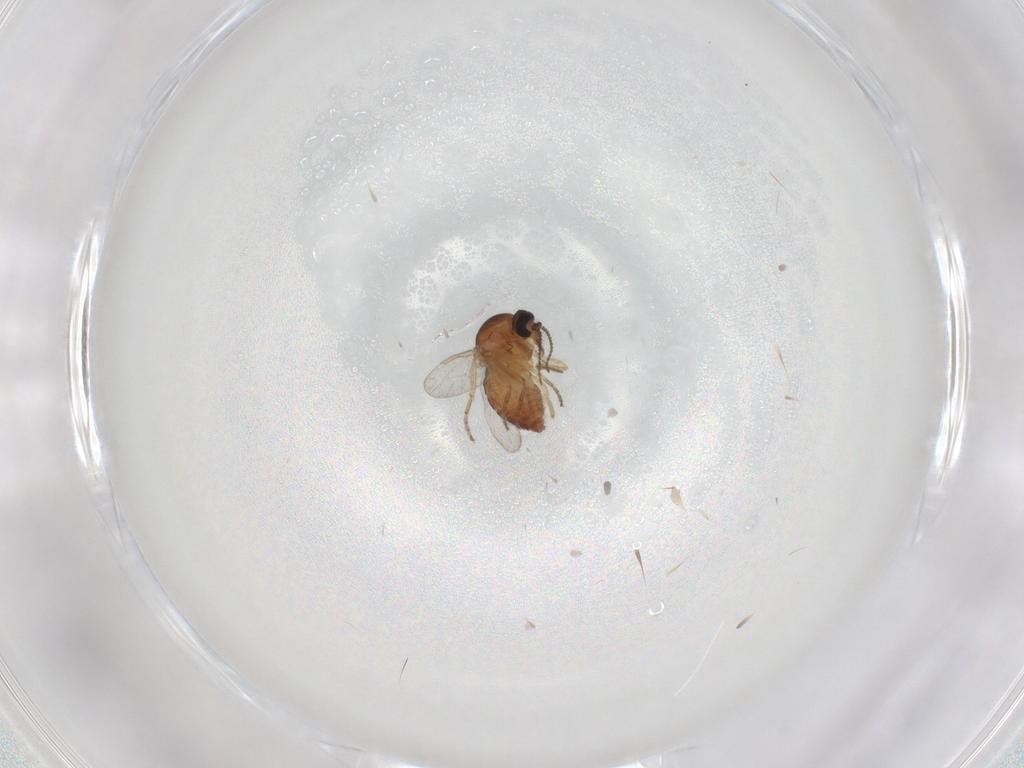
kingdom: Animalia
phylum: Arthropoda
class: Insecta
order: Diptera
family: Ceratopogonidae
